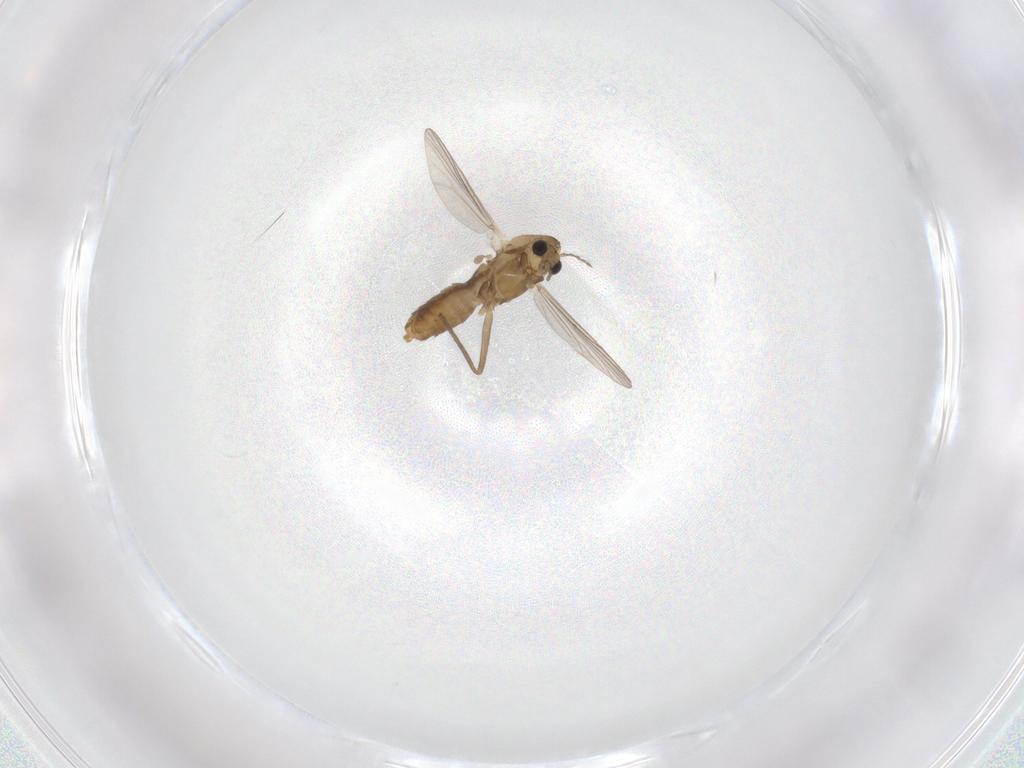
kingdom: Animalia
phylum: Arthropoda
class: Insecta
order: Diptera
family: Chironomidae
